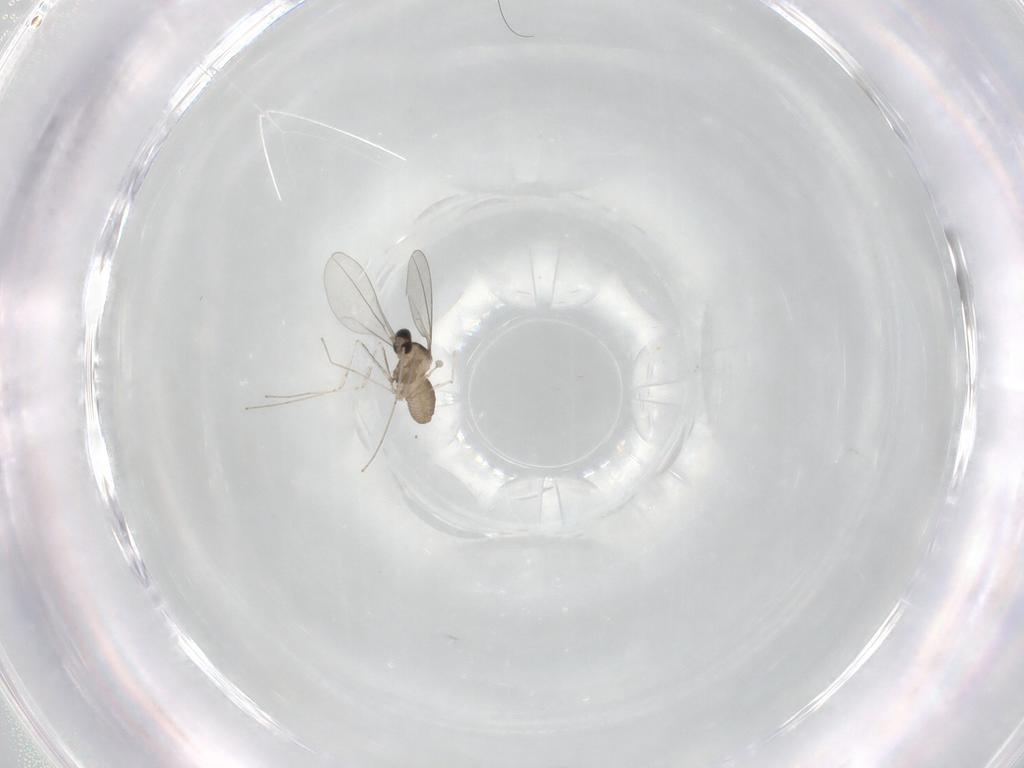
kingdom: Animalia
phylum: Arthropoda
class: Insecta
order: Diptera
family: Cecidomyiidae
